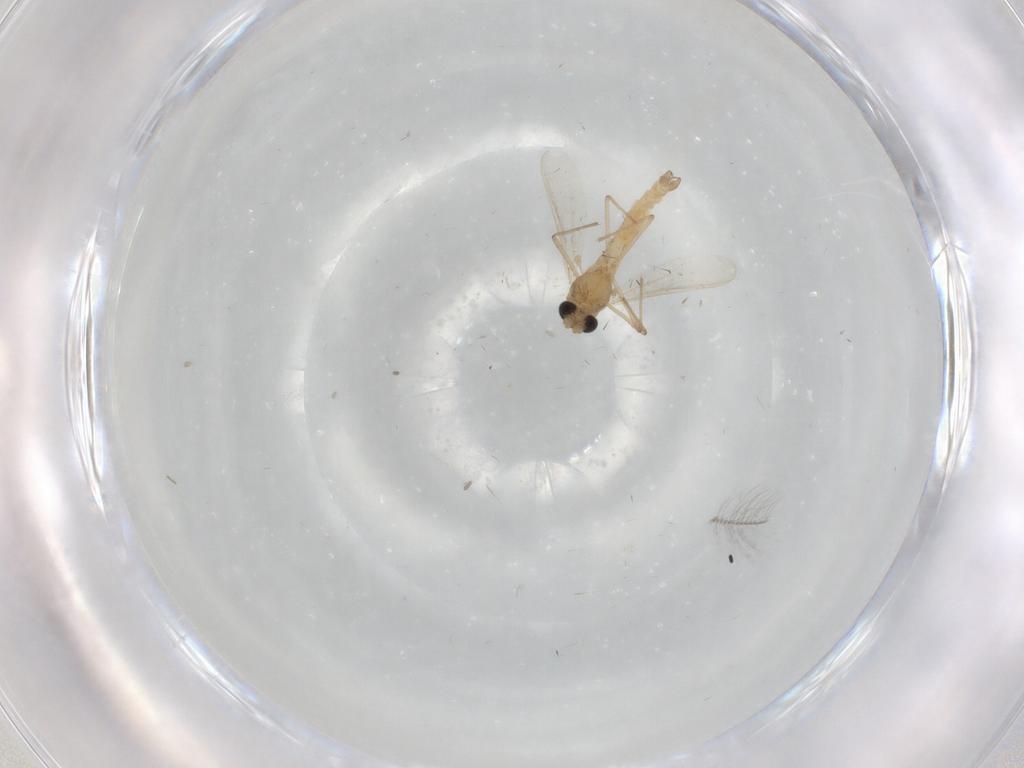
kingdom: Animalia
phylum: Arthropoda
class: Insecta
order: Diptera
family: Chironomidae
